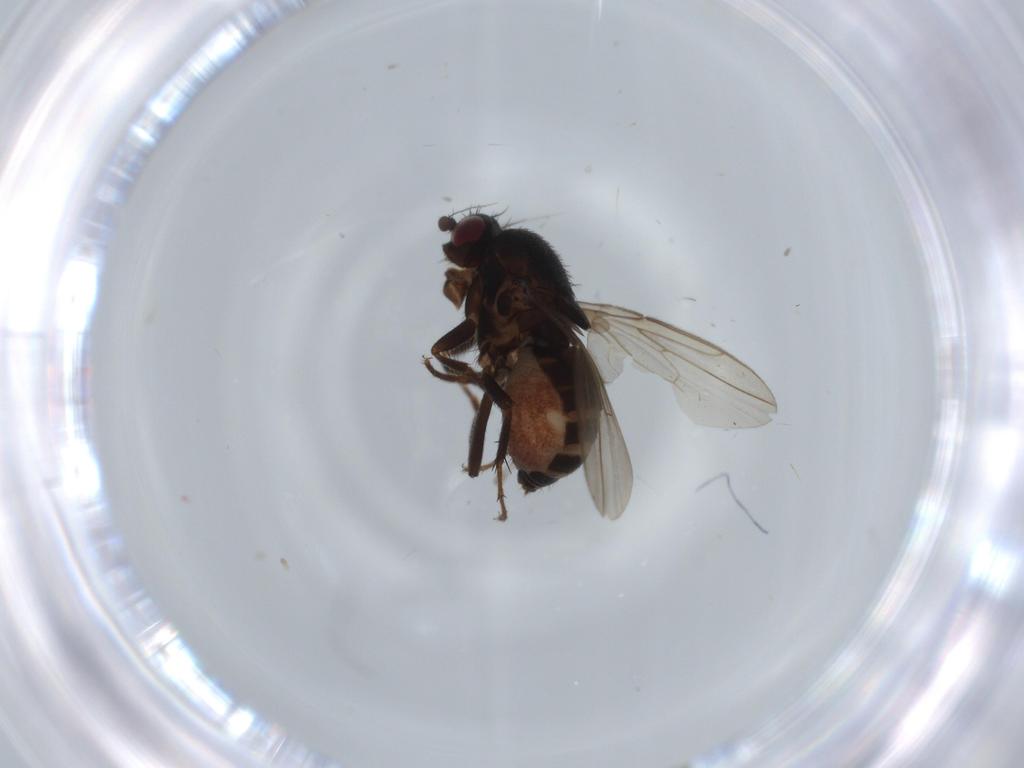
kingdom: Animalia
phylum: Arthropoda
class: Insecta
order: Diptera
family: Sphaeroceridae
